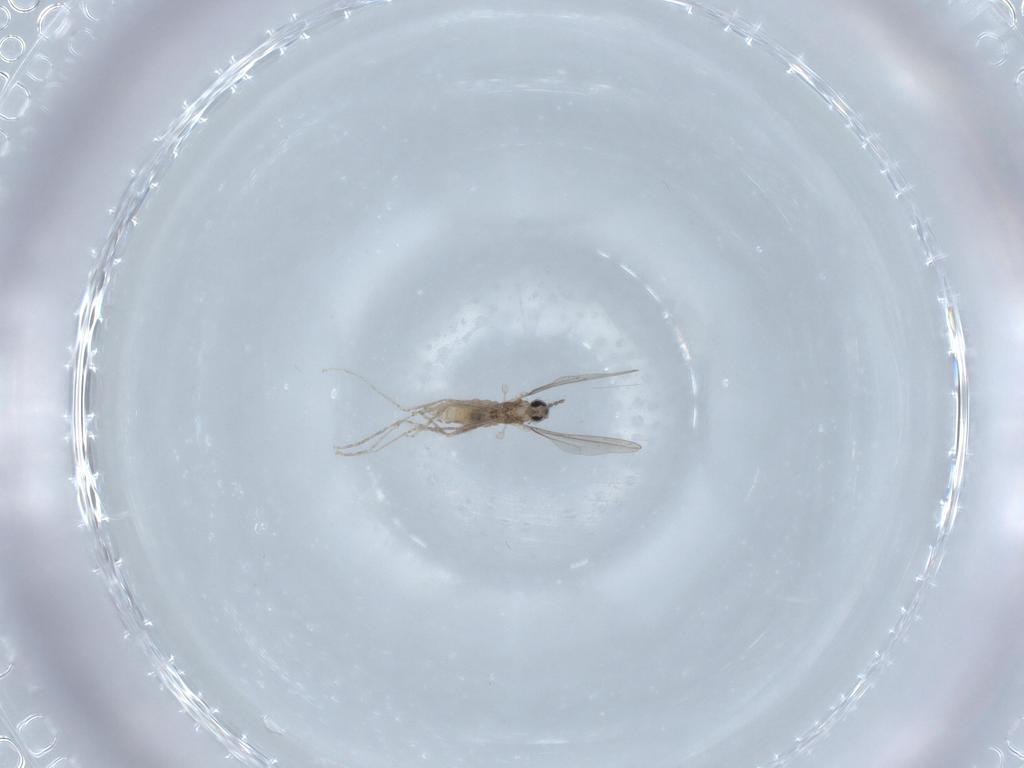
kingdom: Animalia
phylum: Arthropoda
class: Insecta
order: Diptera
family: Cecidomyiidae
